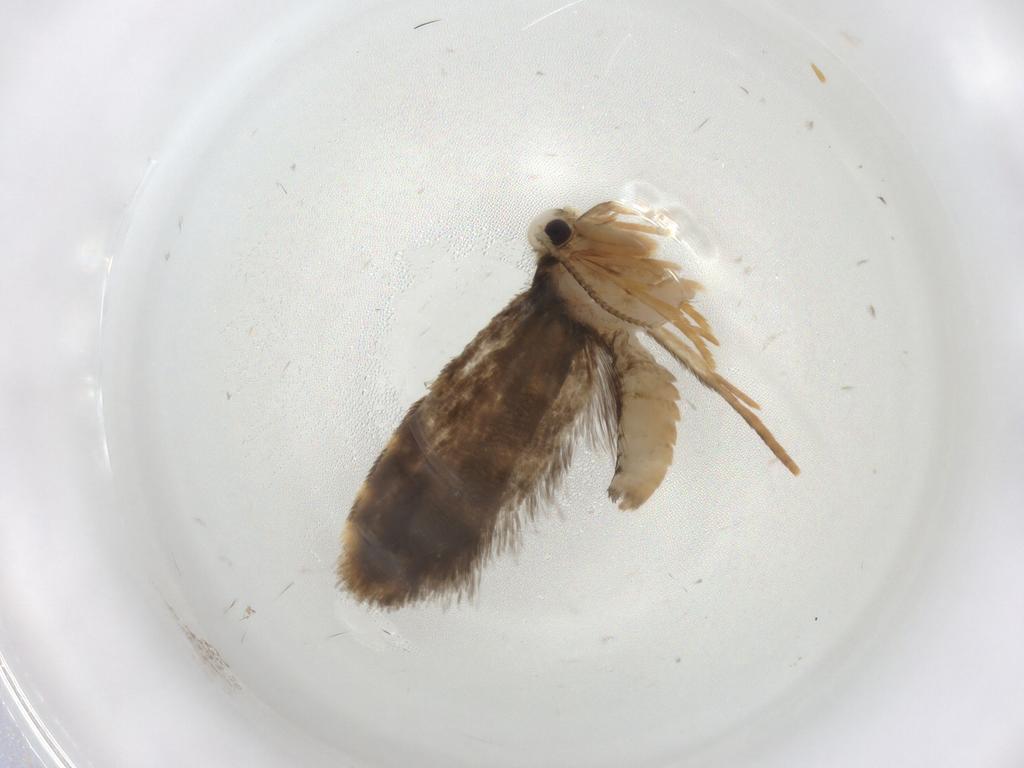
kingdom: Animalia
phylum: Arthropoda
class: Insecta
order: Lepidoptera
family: Psychidae
